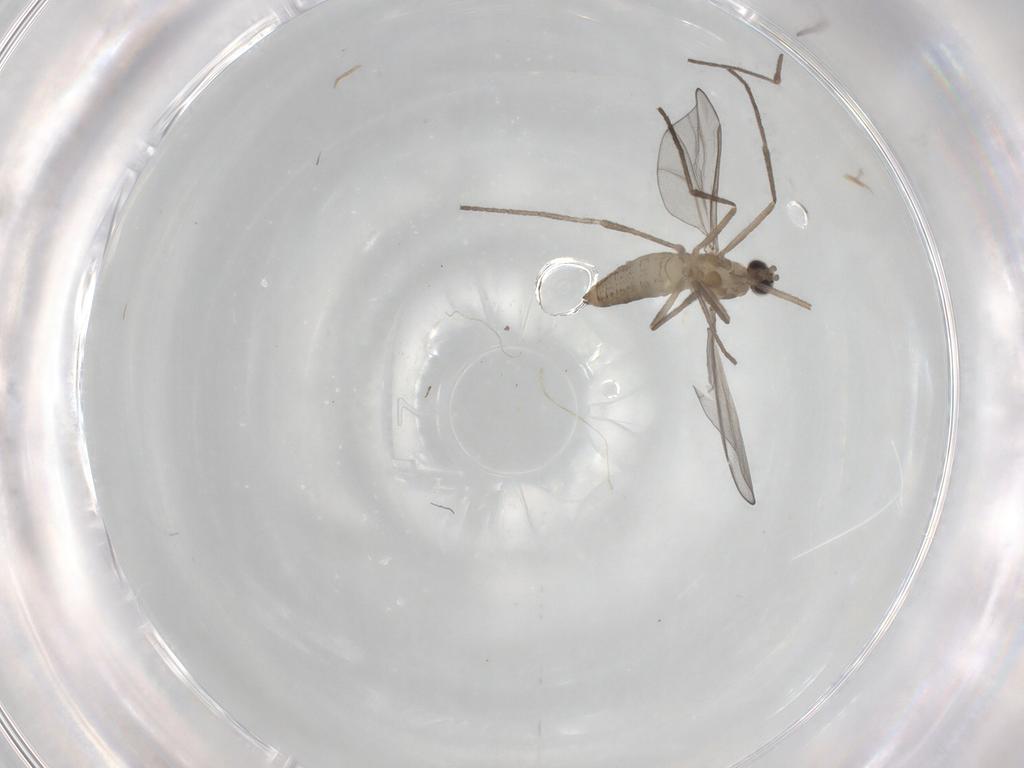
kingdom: Animalia
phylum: Arthropoda
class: Insecta
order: Diptera
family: Cecidomyiidae
